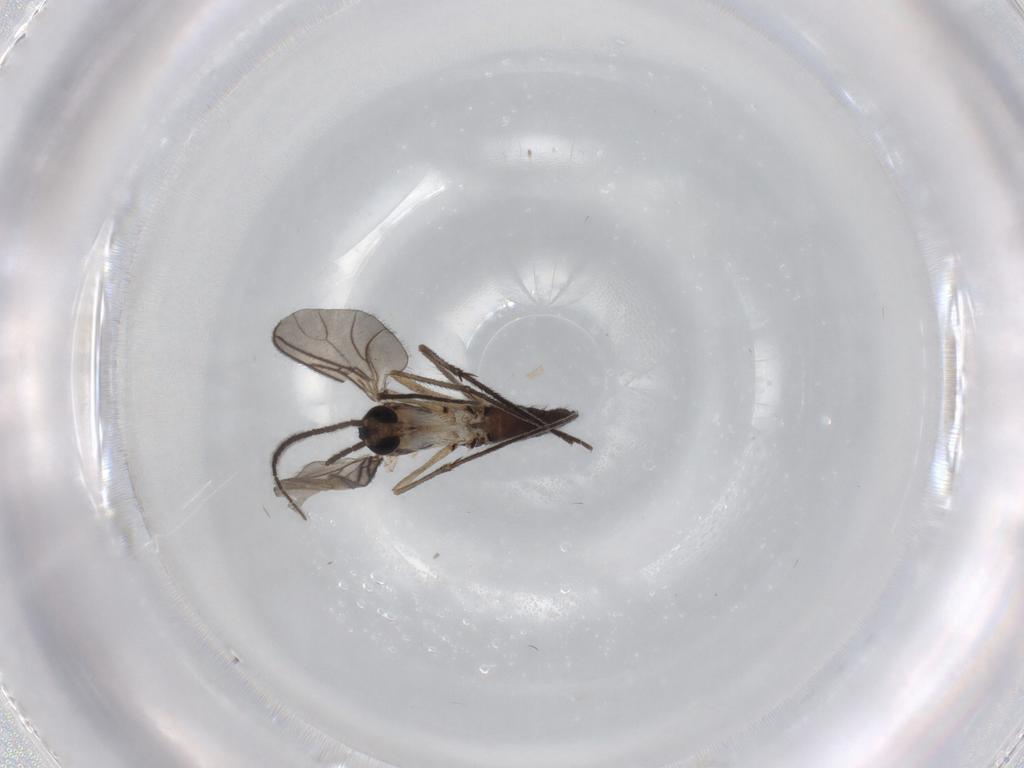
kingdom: Animalia
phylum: Arthropoda
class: Insecta
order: Diptera
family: Sciaridae
